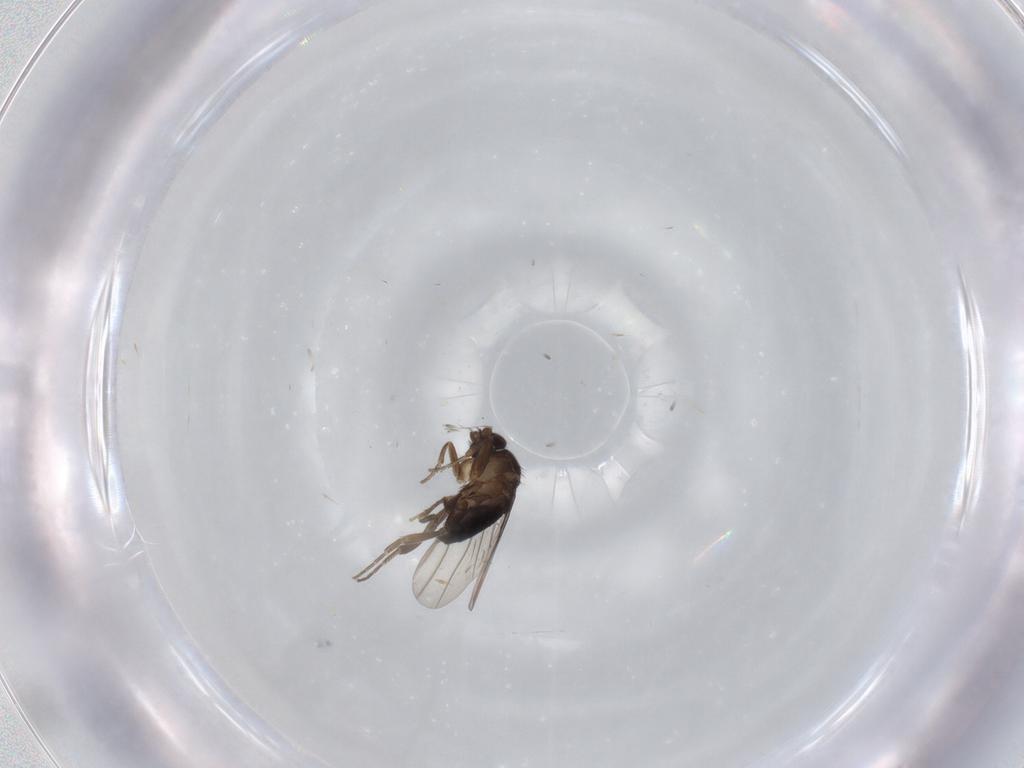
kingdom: Animalia
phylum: Arthropoda
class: Insecta
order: Diptera
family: Phoridae
